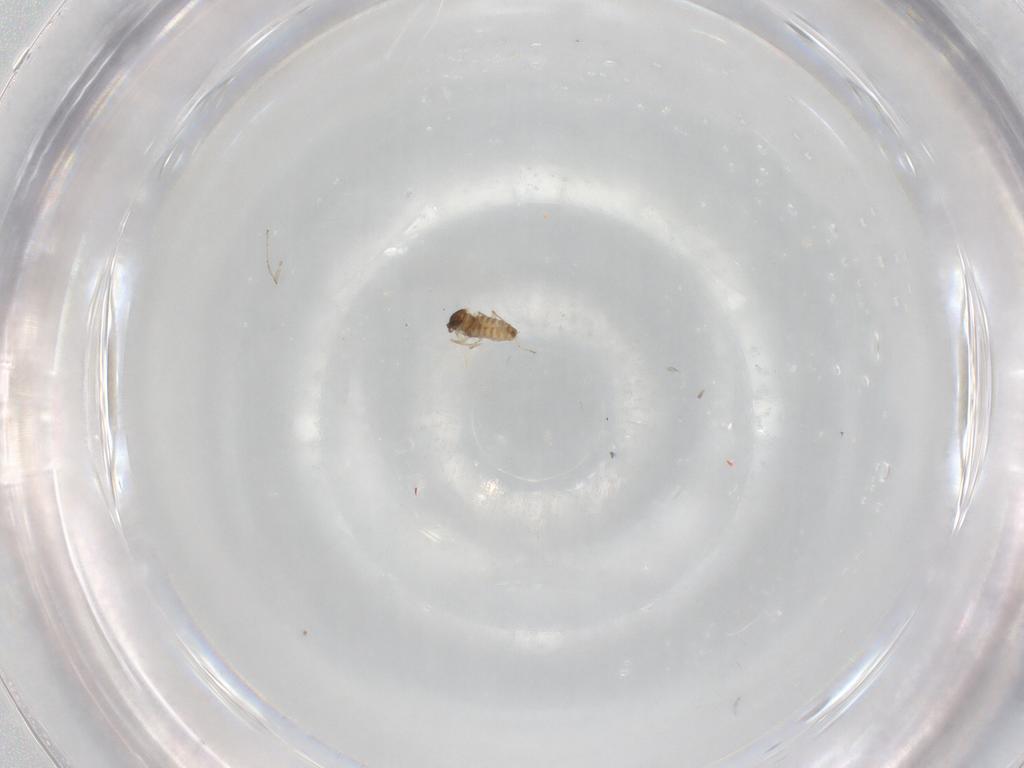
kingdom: Animalia
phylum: Arthropoda
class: Insecta
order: Diptera
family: Cecidomyiidae
